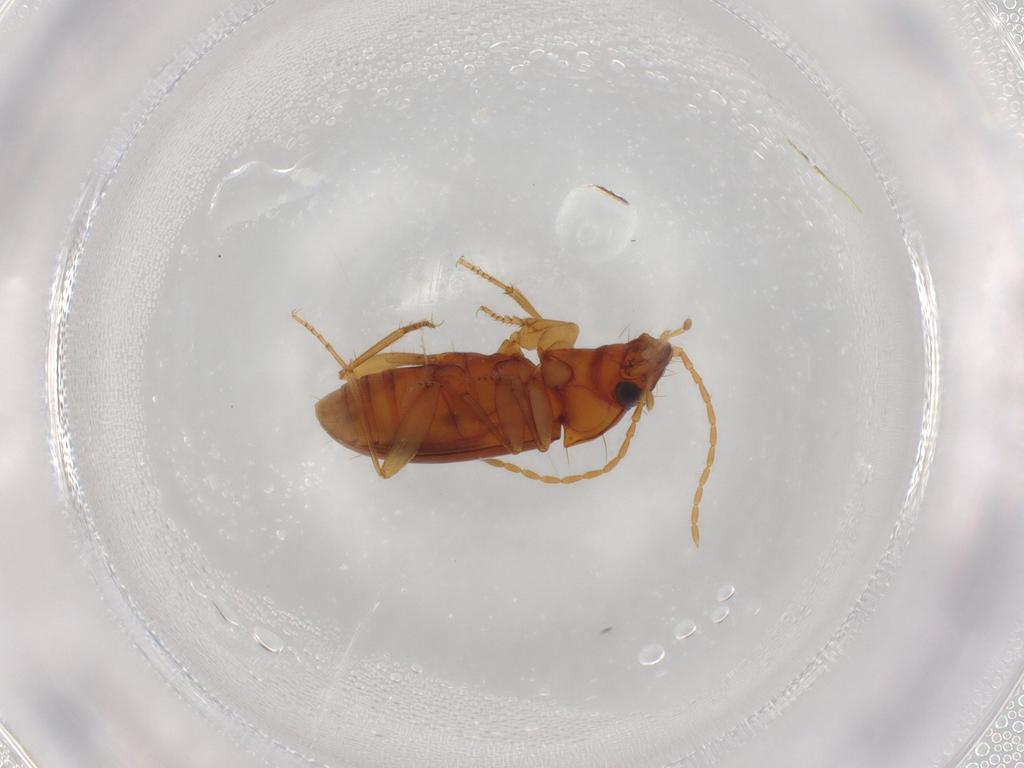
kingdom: Animalia
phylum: Arthropoda
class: Insecta
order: Coleoptera
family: Carabidae
